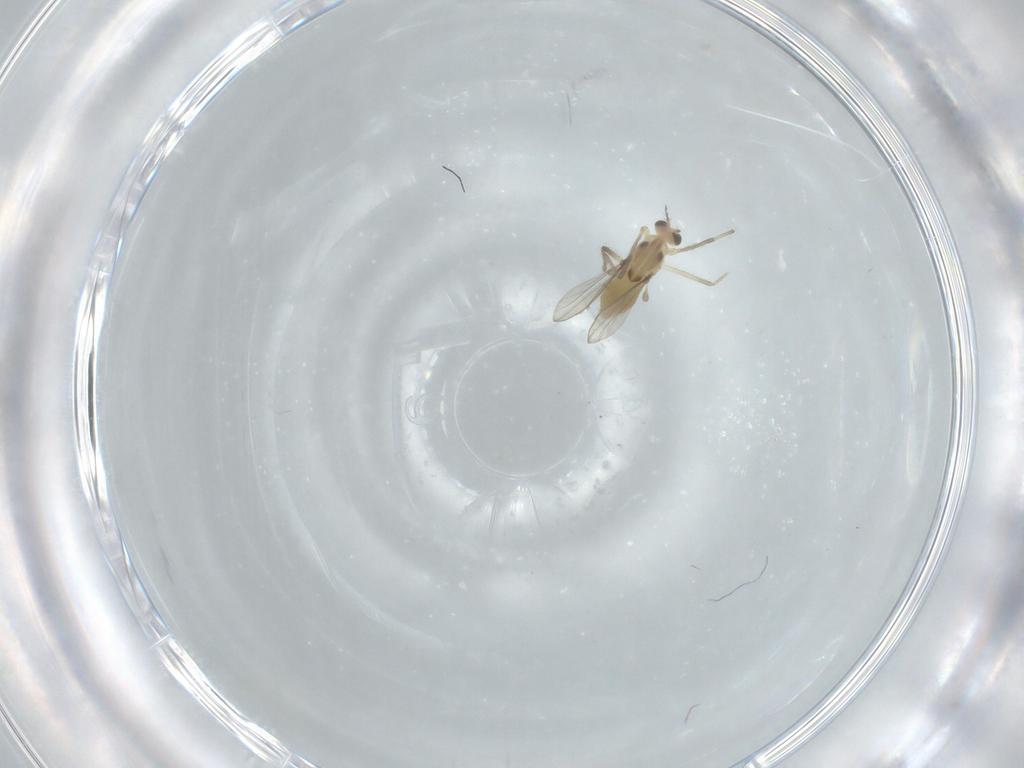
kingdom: Animalia
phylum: Arthropoda
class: Insecta
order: Diptera
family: Chironomidae
